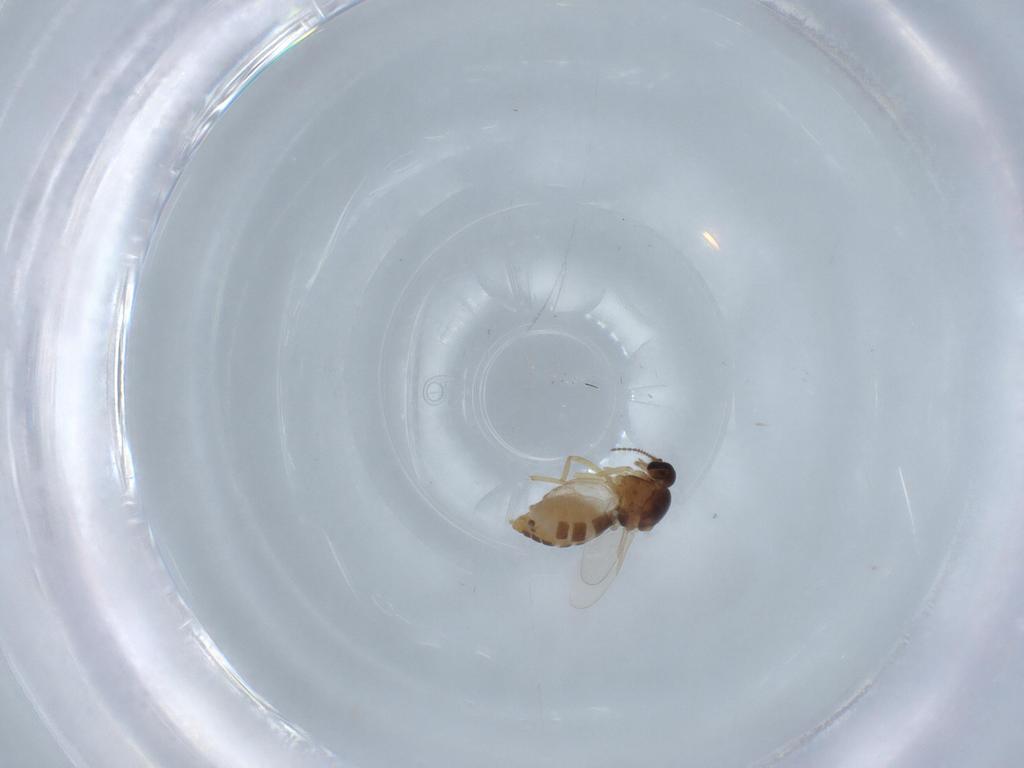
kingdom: Animalia
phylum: Arthropoda
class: Insecta
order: Diptera
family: Ceratopogonidae
